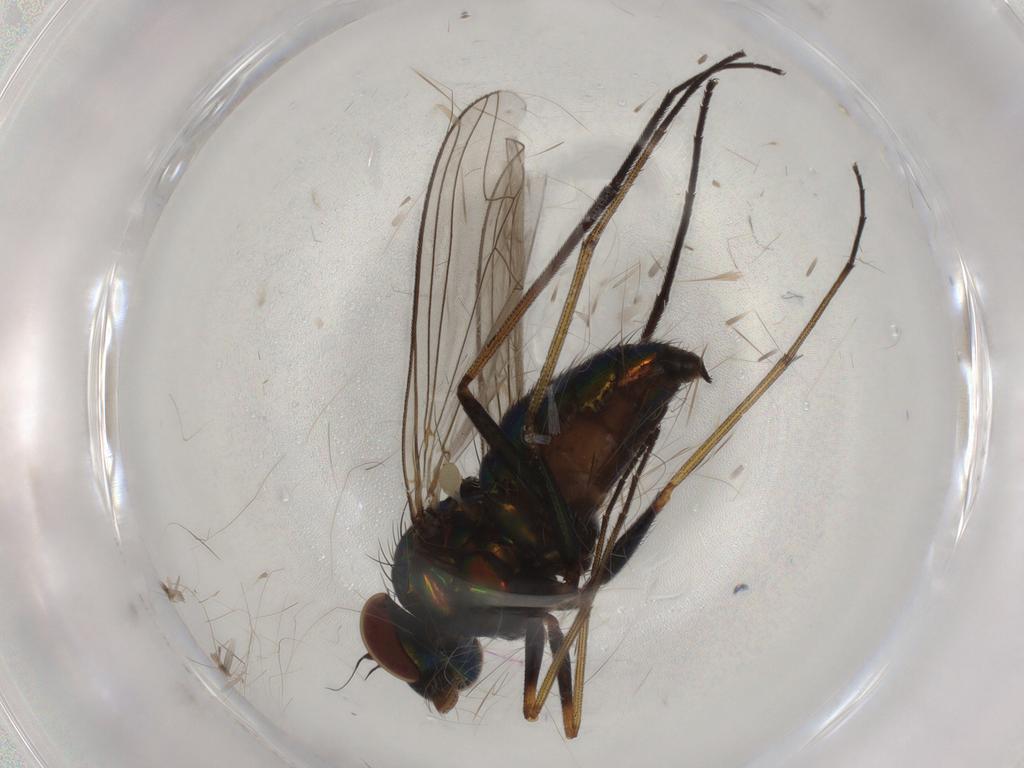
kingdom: Animalia
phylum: Arthropoda
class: Insecta
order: Diptera
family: Dolichopodidae
